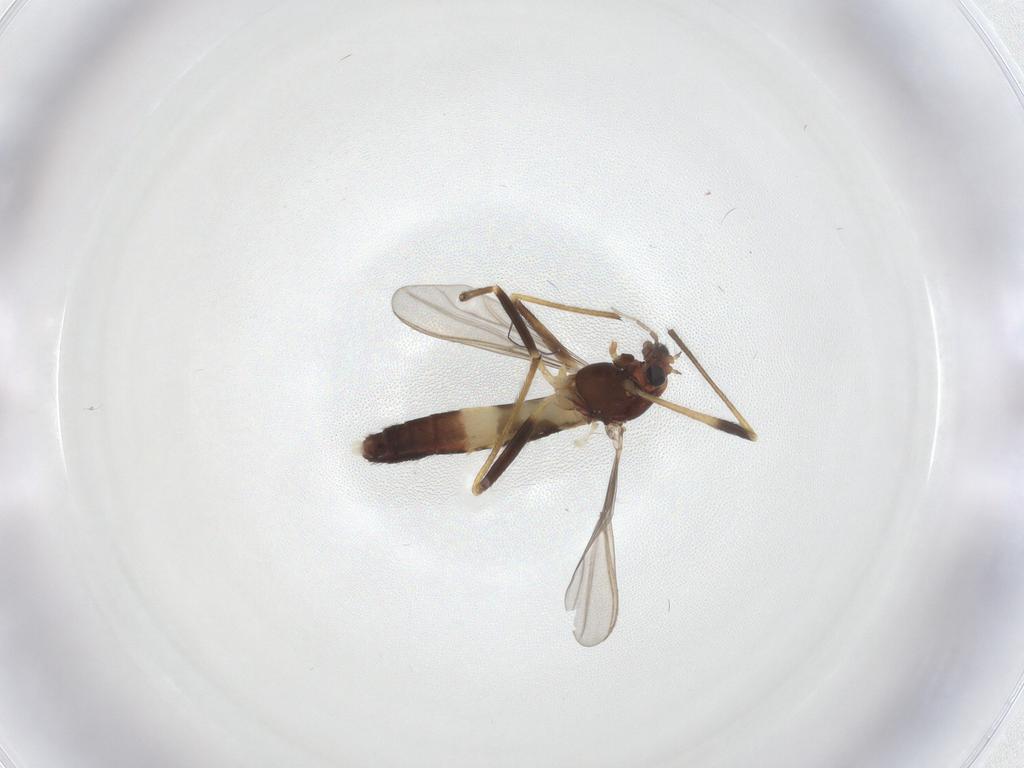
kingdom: Animalia
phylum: Arthropoda
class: Insecta
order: Diptera
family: Chironomidae
